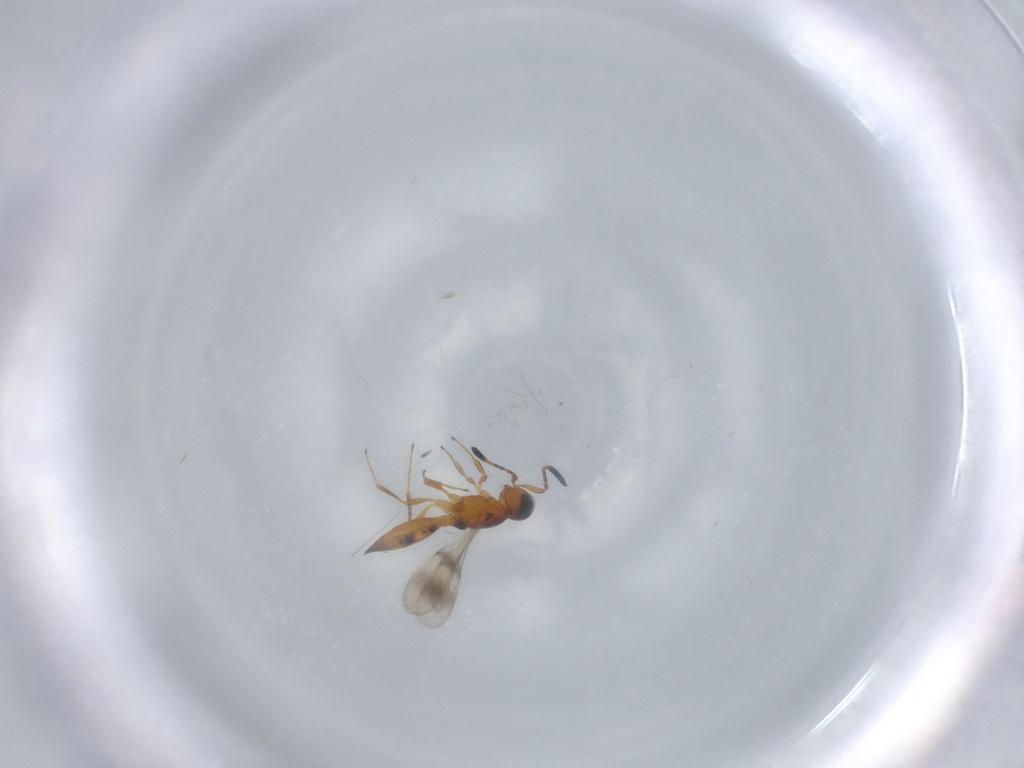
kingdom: Animalia
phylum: Arthropoda
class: Insecta
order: Hymenoptera
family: Scelionidae
